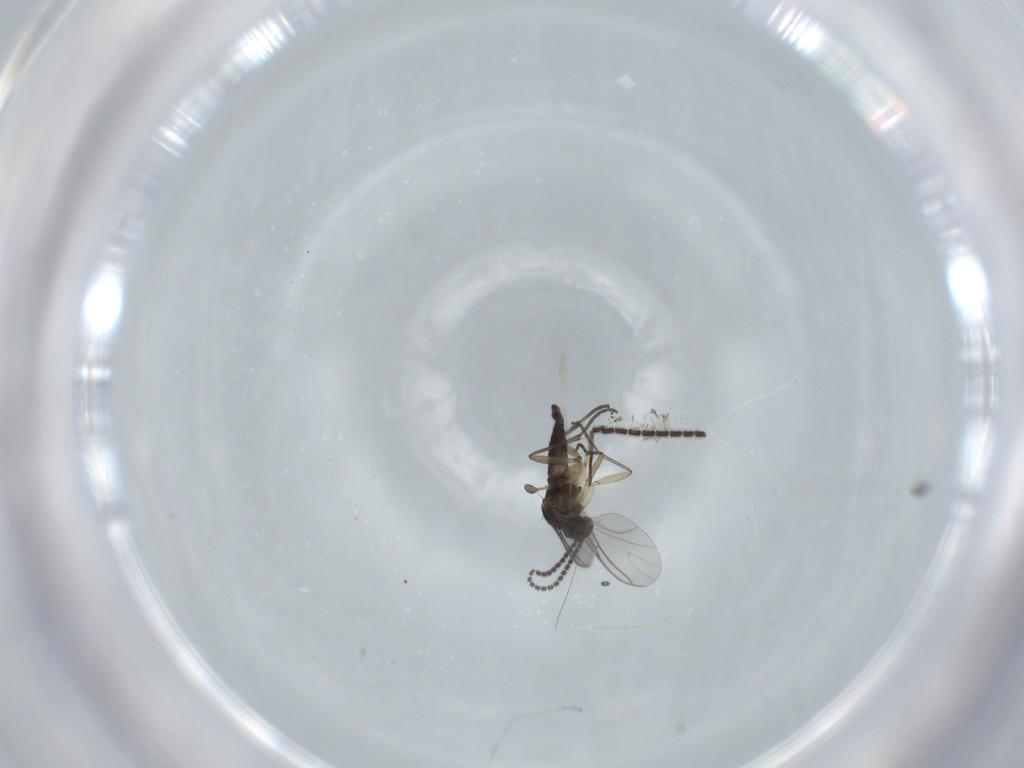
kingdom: Animalia
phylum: Arthropoda
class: Insecta
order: Diptera
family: Sciaridae
